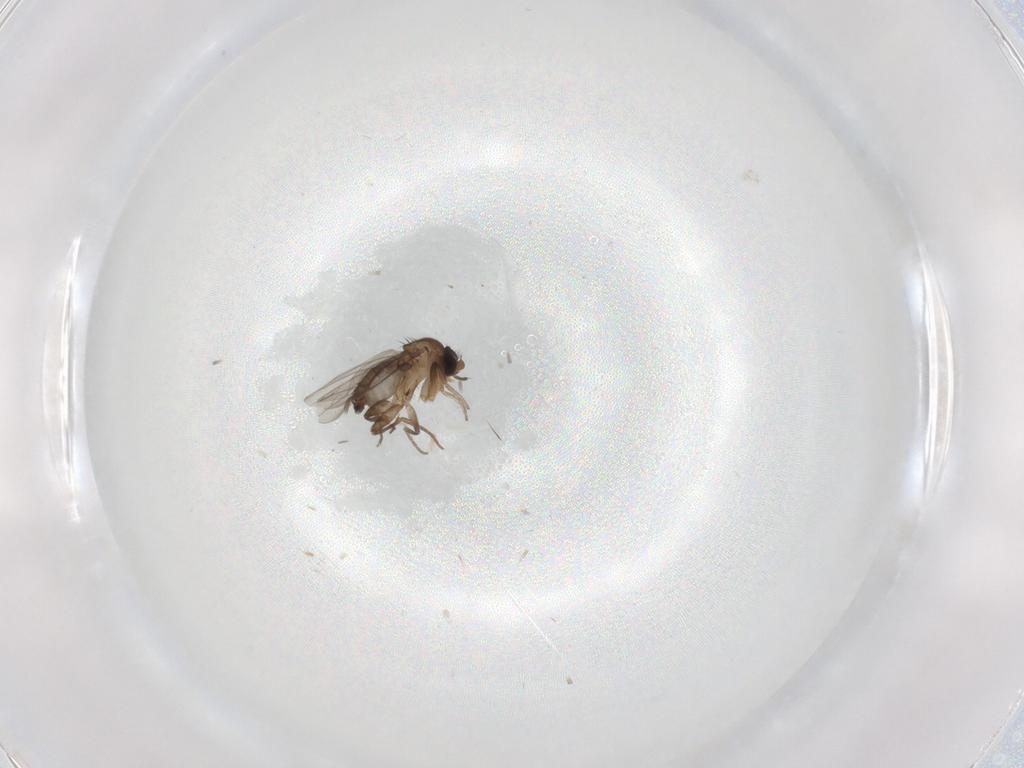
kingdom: Animalia
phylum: Arthropoda
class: Insecta
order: Diptera
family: Phoridae
